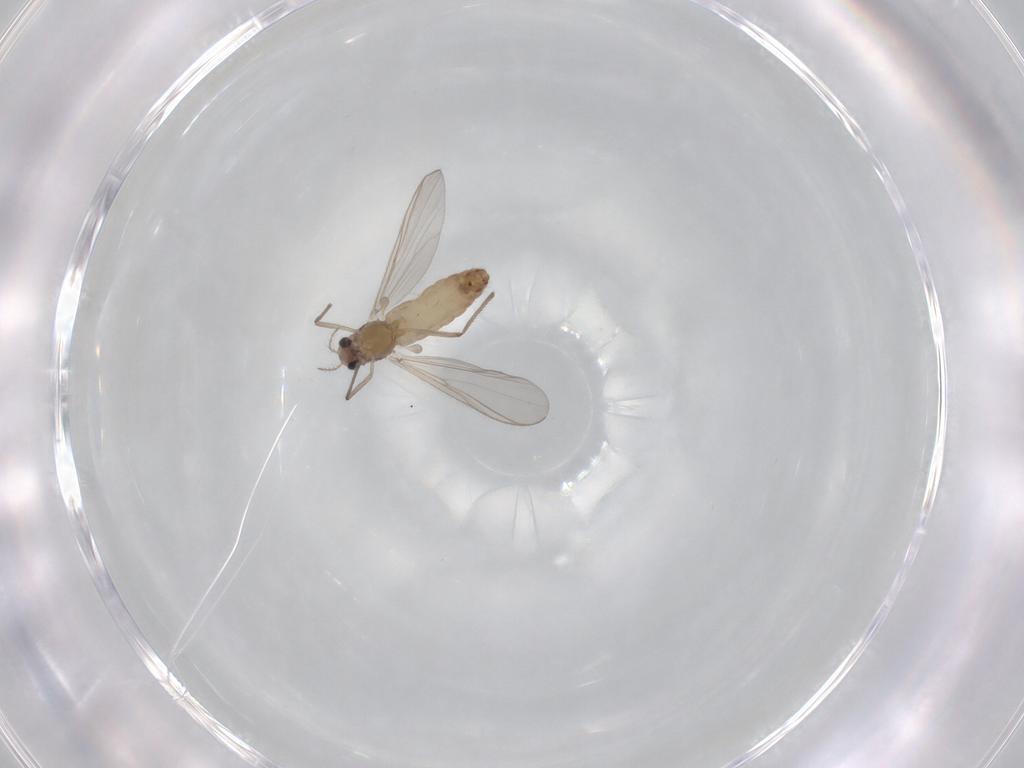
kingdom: Animalia
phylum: Arthropoda
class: Insecta
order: Diptera
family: Chironomidae
